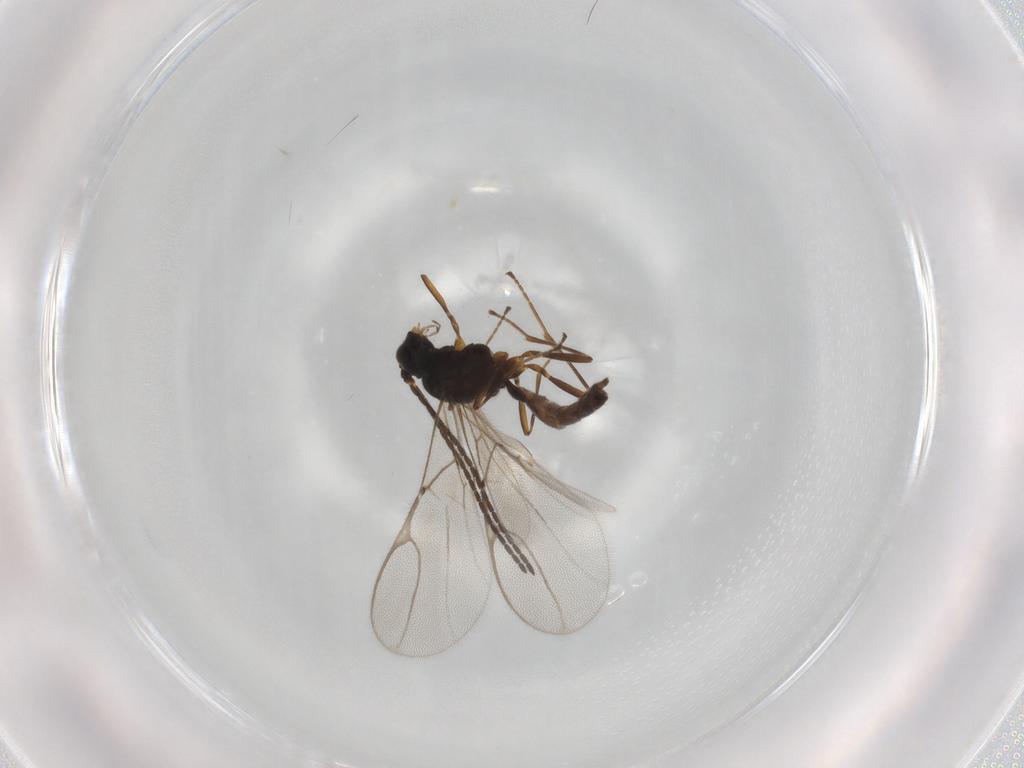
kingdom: Animalia
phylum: Arthropoda
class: Insecta
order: Hymenoptera
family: Braconidae
